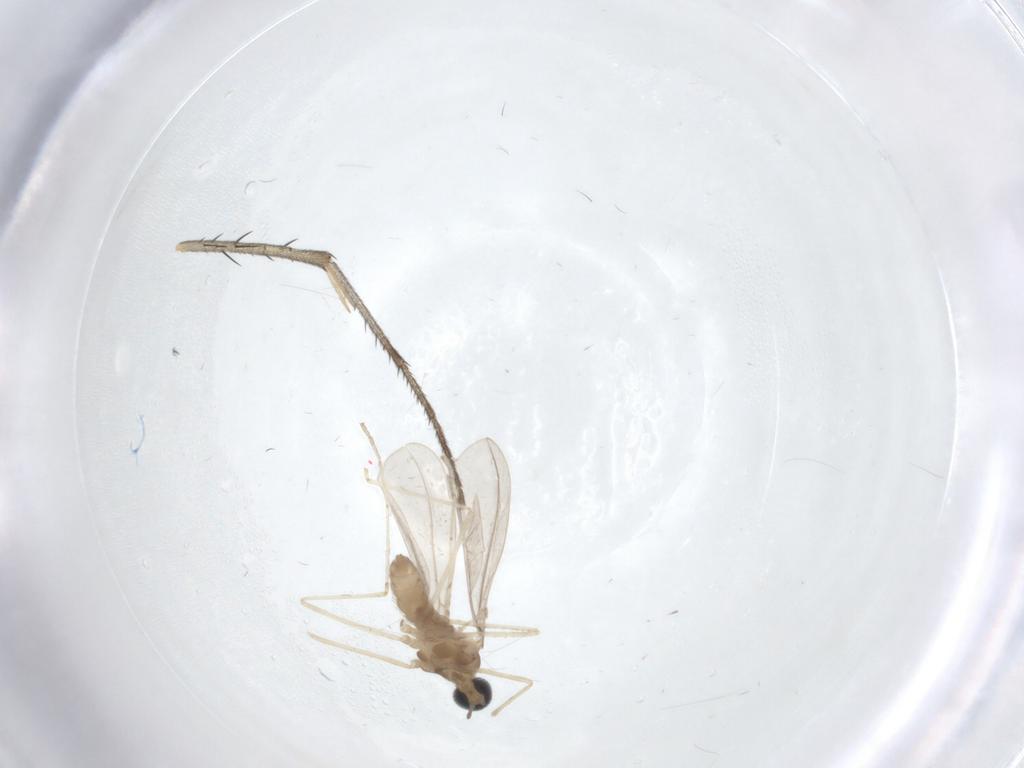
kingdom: Animalia
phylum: Arthropoda
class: Insecta
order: Diptera
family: Cecidomyiidae
